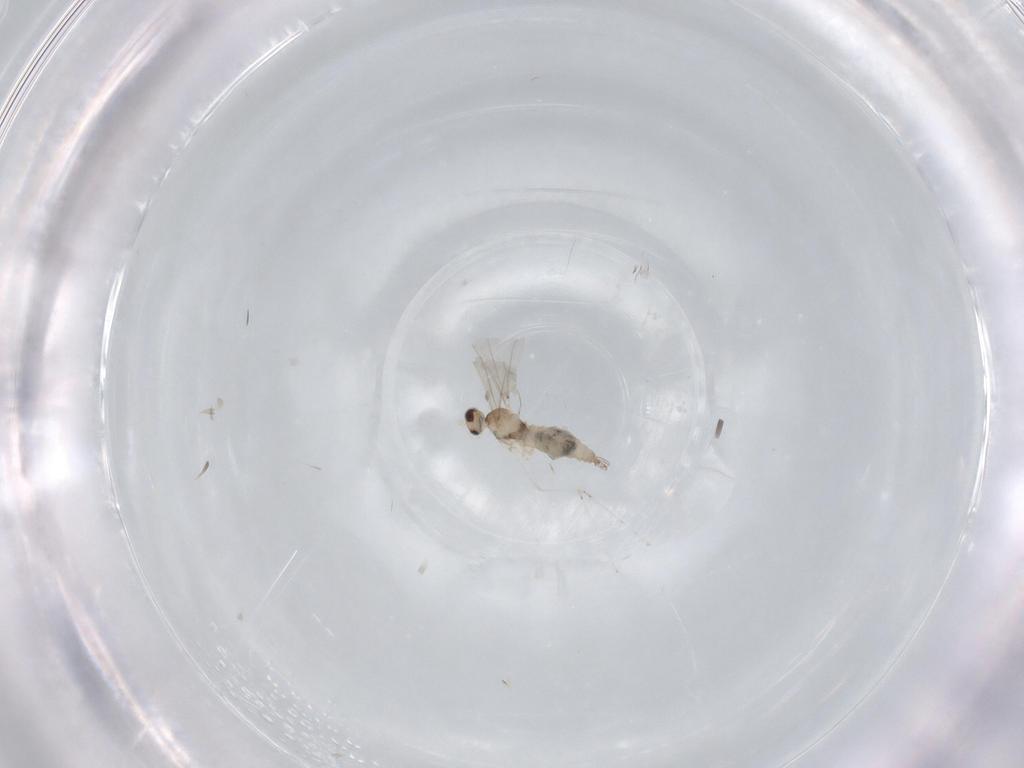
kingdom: Animalia
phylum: Arthropoda
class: Insecta
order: Diptera
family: Cecidomyiidae
